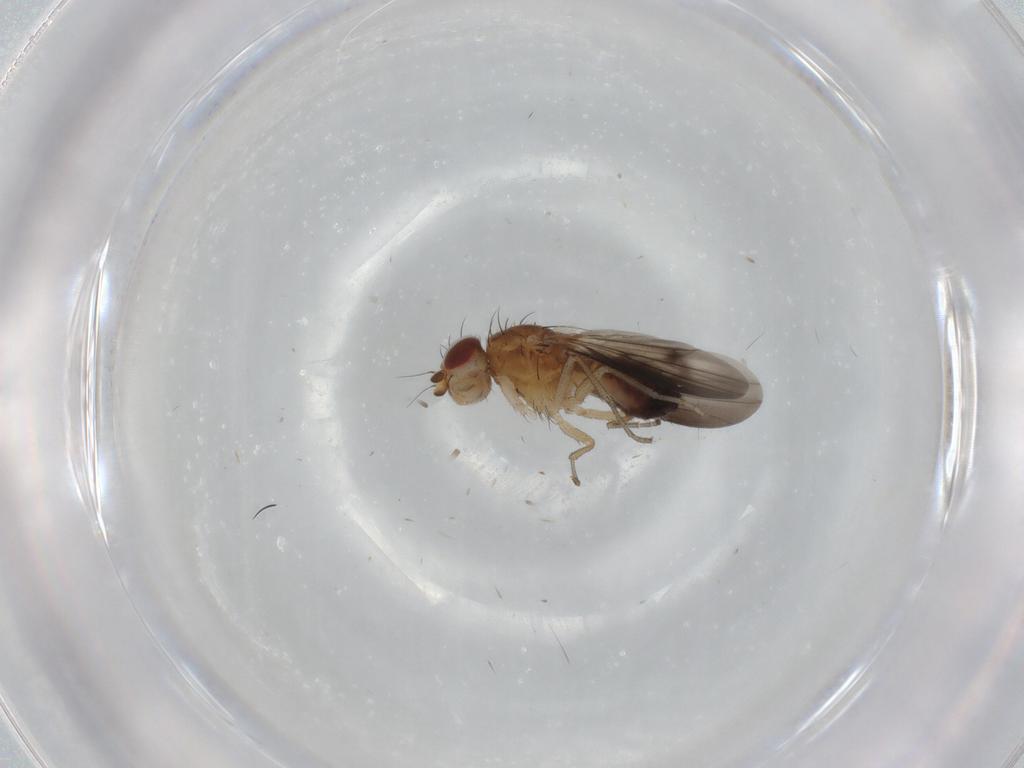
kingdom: Animalia
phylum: Arthropoda
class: Insecta
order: Diptera
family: Heleomyzidae
